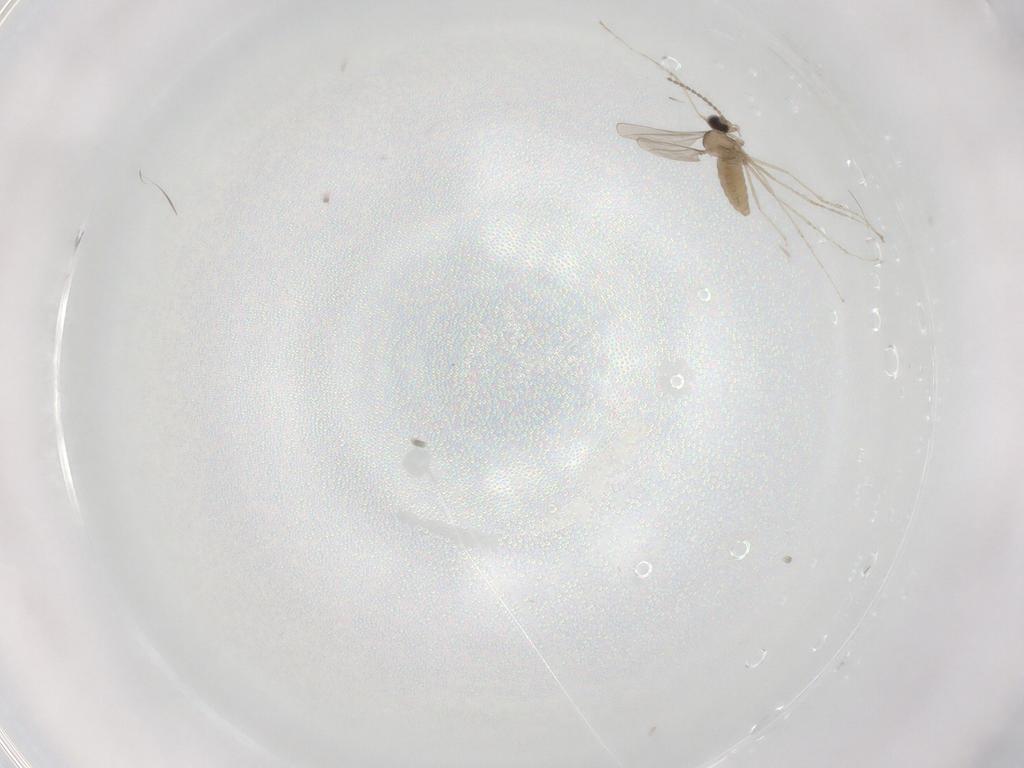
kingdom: Animalia
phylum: Arthropoda
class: Insecta
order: Diptera
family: Cecidomyiidae
